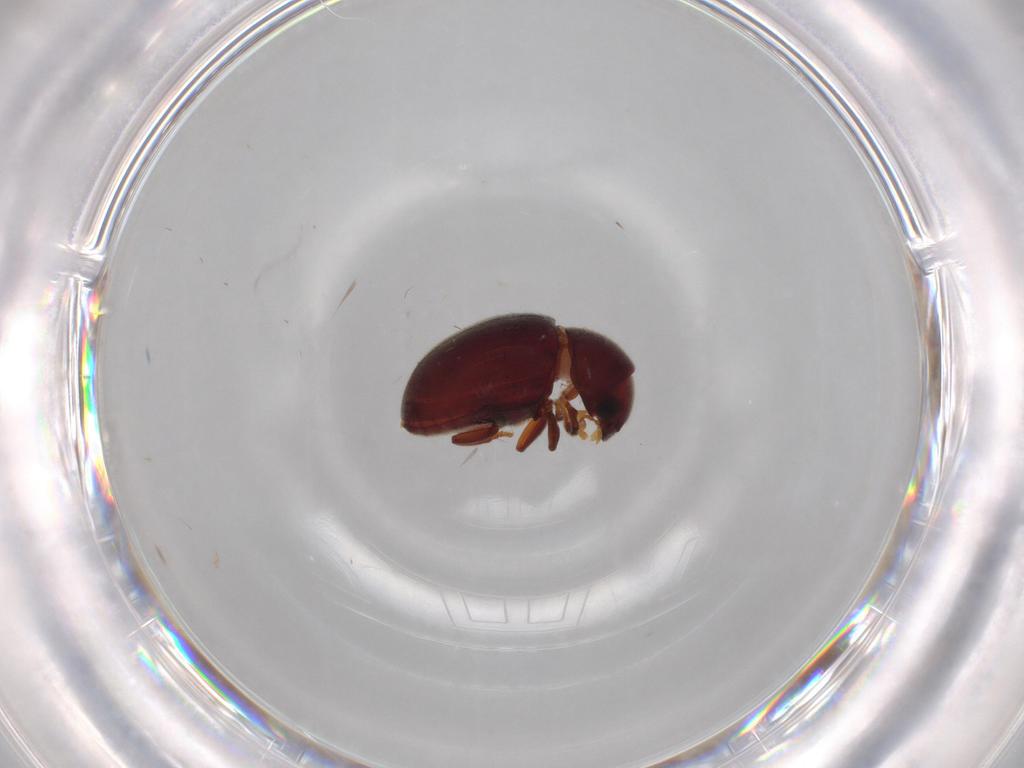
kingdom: Animalia
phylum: Arthropoda
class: Insecta
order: Coleoptera
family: Ptinidae
